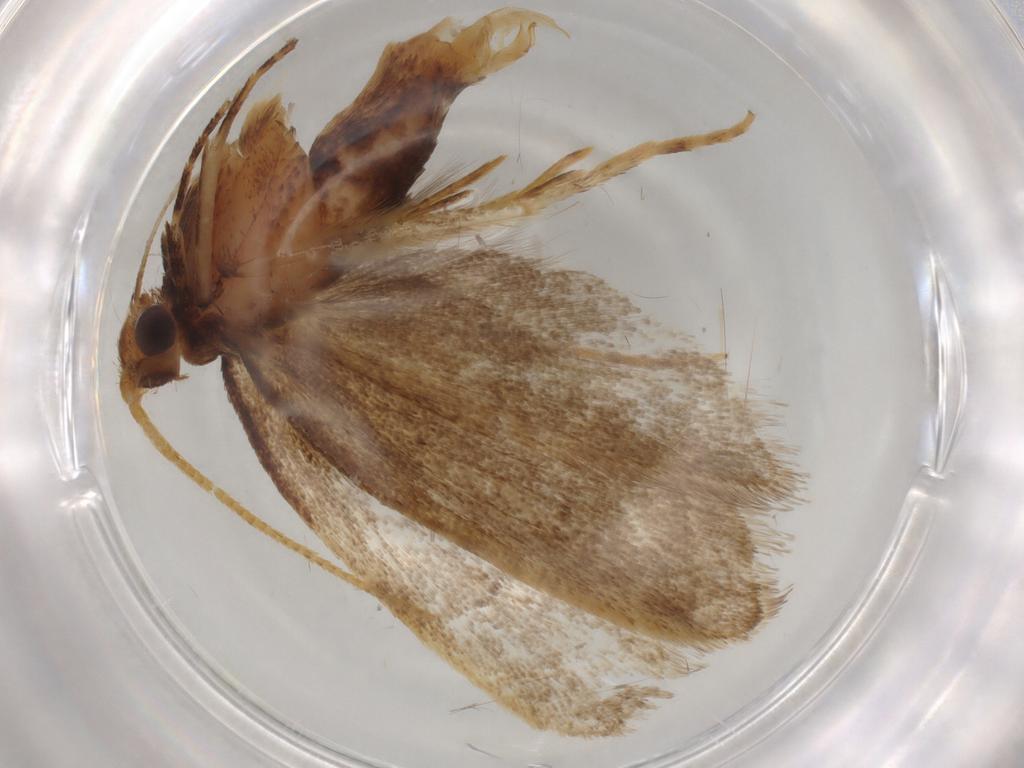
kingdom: Animalia
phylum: Arthropoda
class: Insecta
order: Lepidoptera
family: Lecithoceridae
